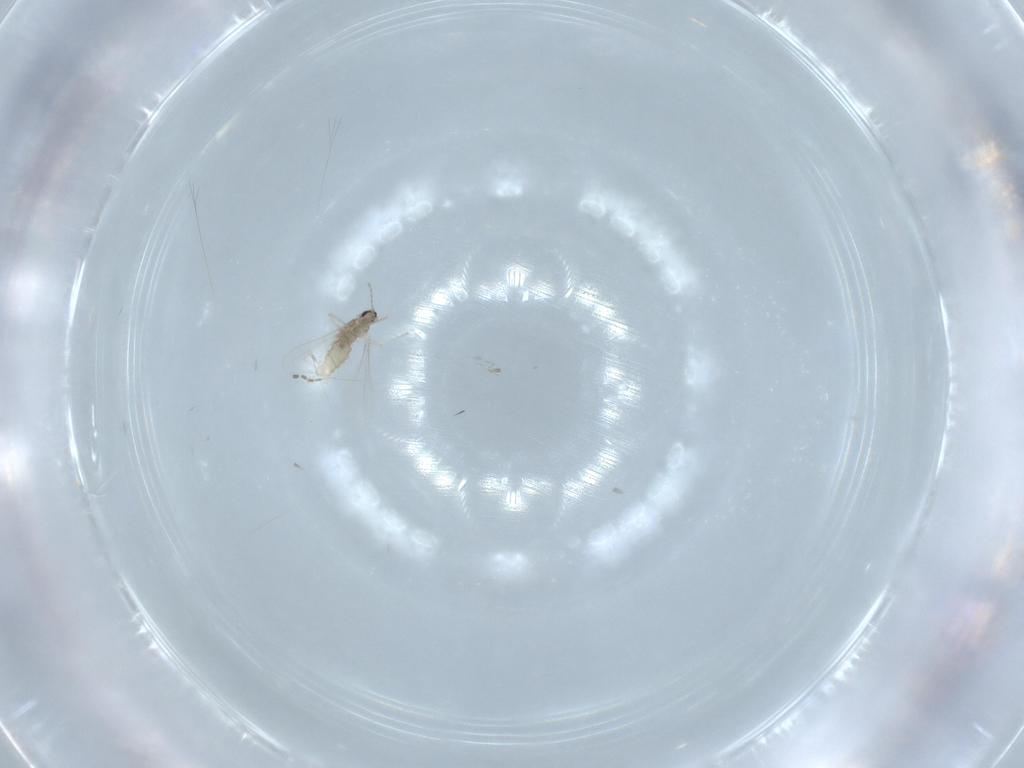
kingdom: Animalia
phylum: Arthropoda
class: Insecta
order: Diptera
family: Cecidomyiidae
